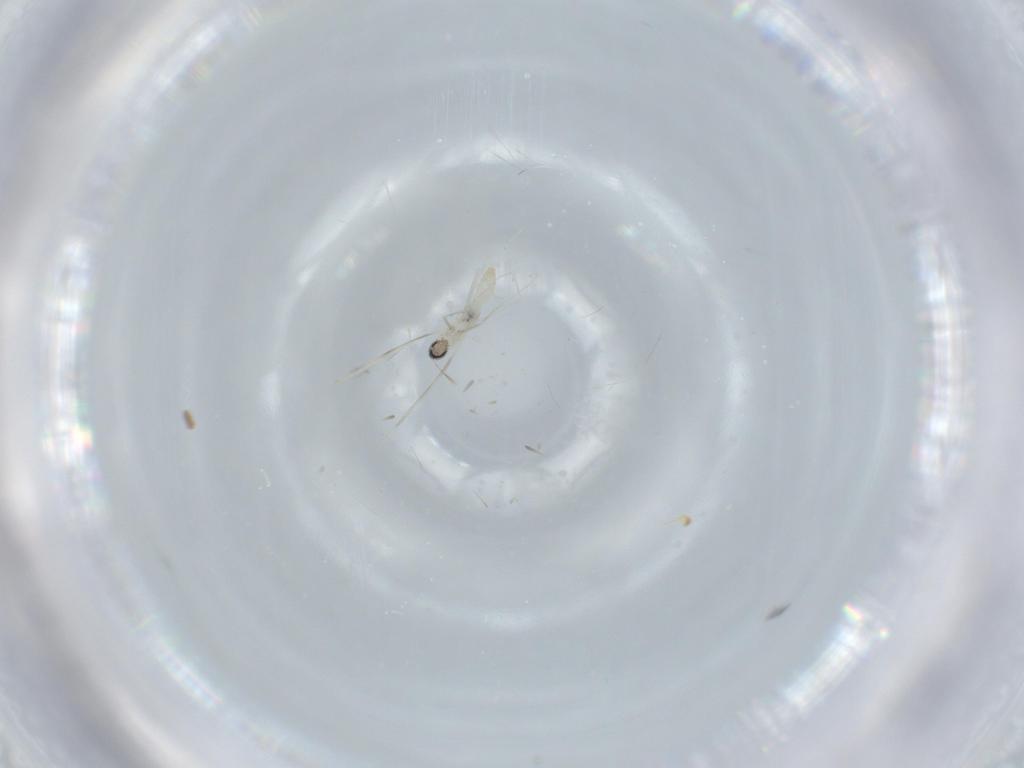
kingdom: Animalia
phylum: Arthropoda
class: Insecta
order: Diptera
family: Cecidomyiidae
